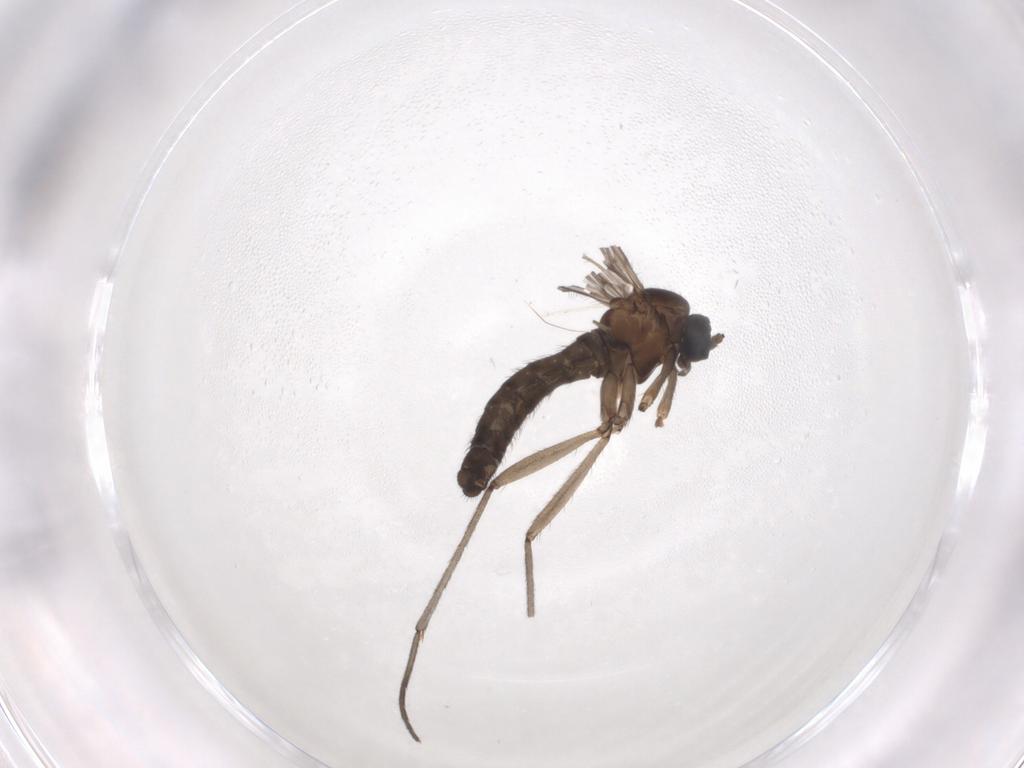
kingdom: Animalia
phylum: Arthropoda
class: Insecta
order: Diptera
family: Sciaridae
